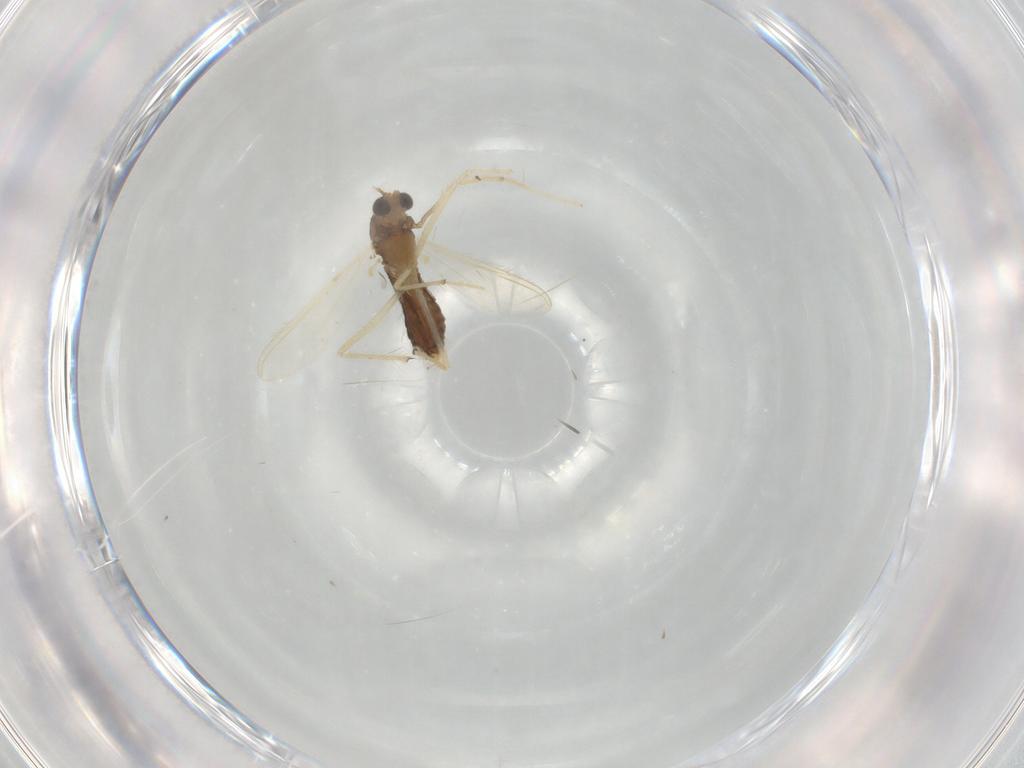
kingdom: Animalia
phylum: Arthropoda
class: Insecta
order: Diptera
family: Chironomidae
